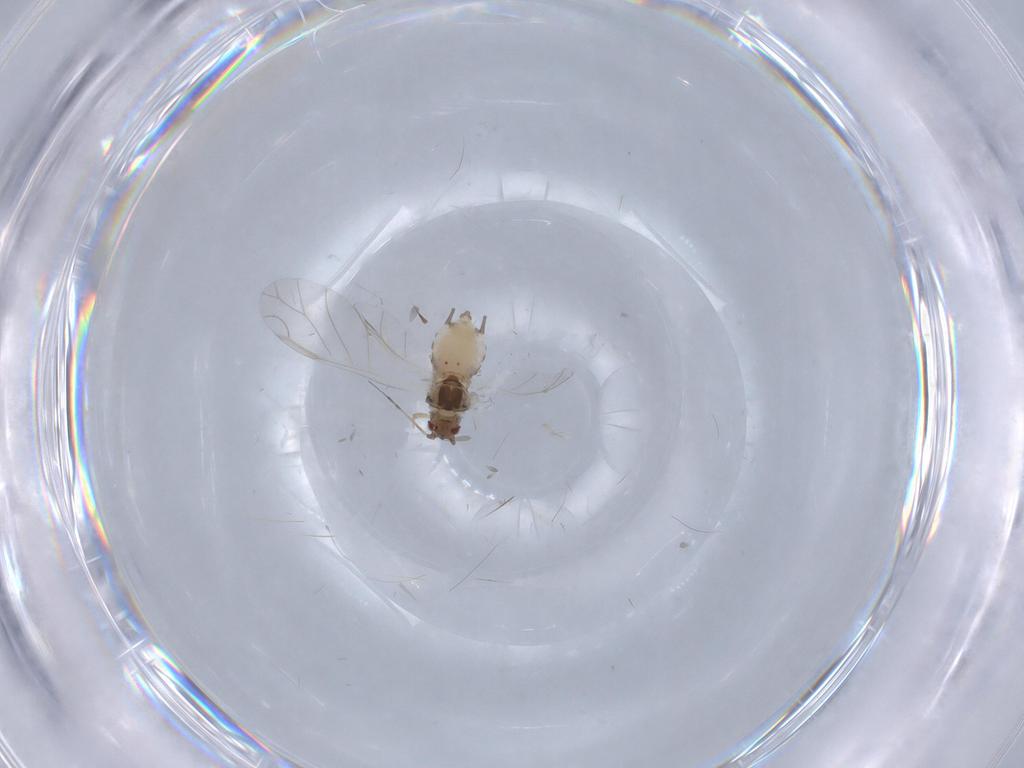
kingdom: Animalia
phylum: Arthropoda
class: Insecta
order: Hemiptera
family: Aphididae
